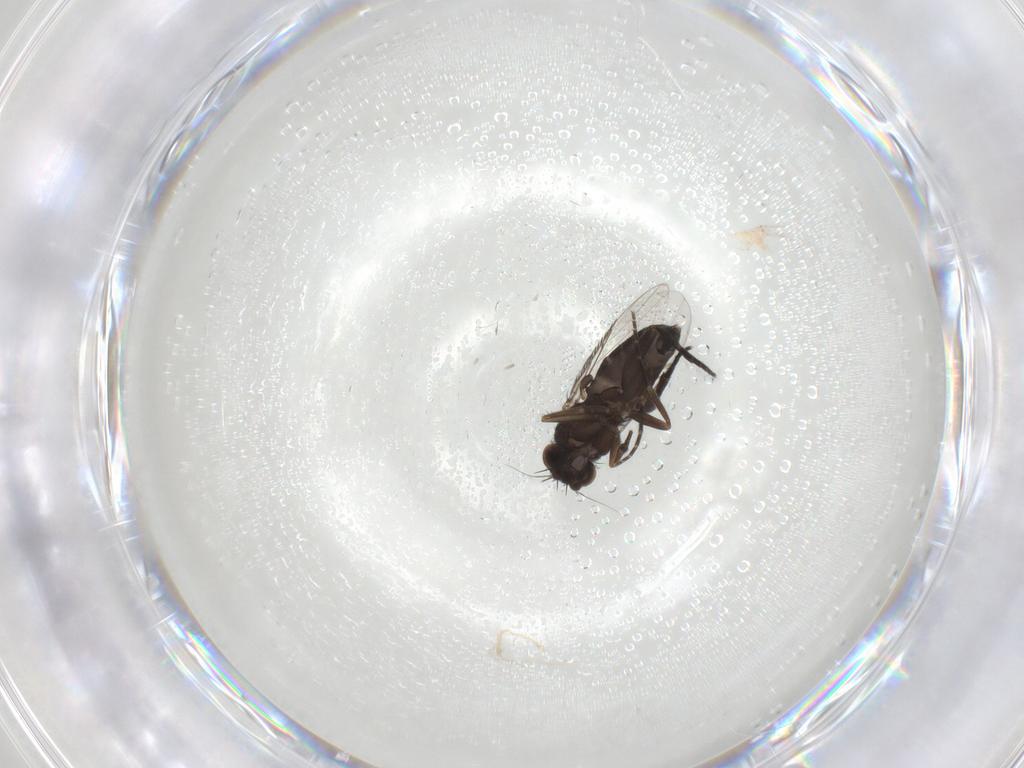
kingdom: Animalia
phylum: Arthropoda
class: Insecta
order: Diptera
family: Phoridae
